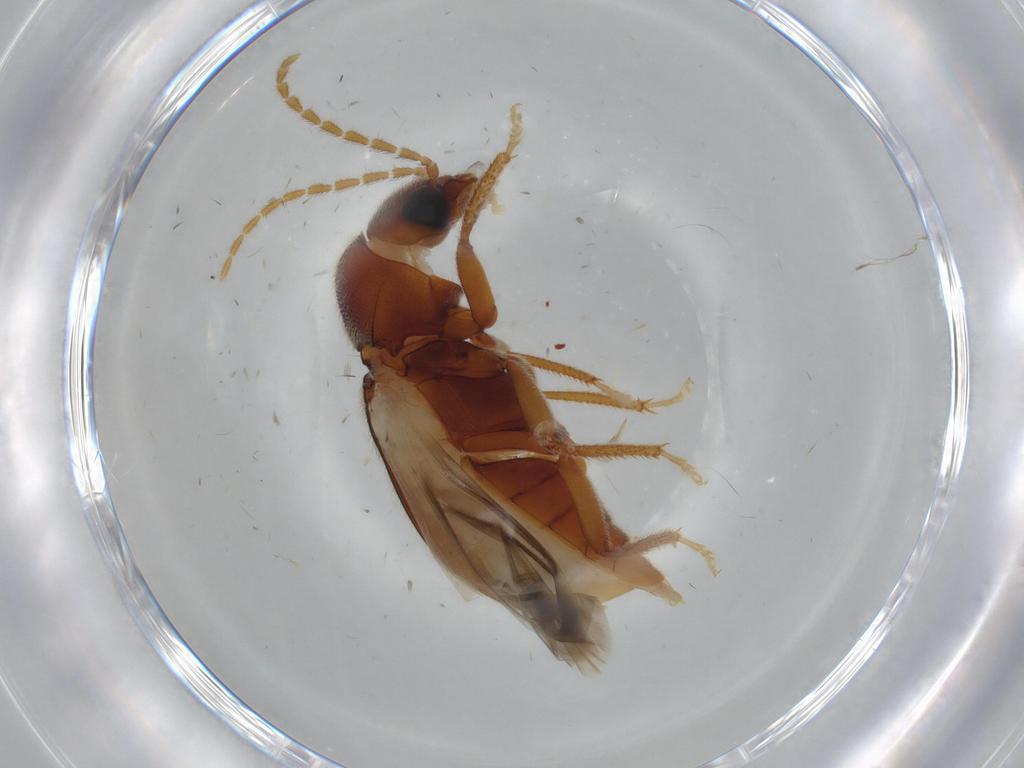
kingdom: Animalia
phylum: Arthropoda
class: Insecta
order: Coleoptera
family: Ptilodactylidae
